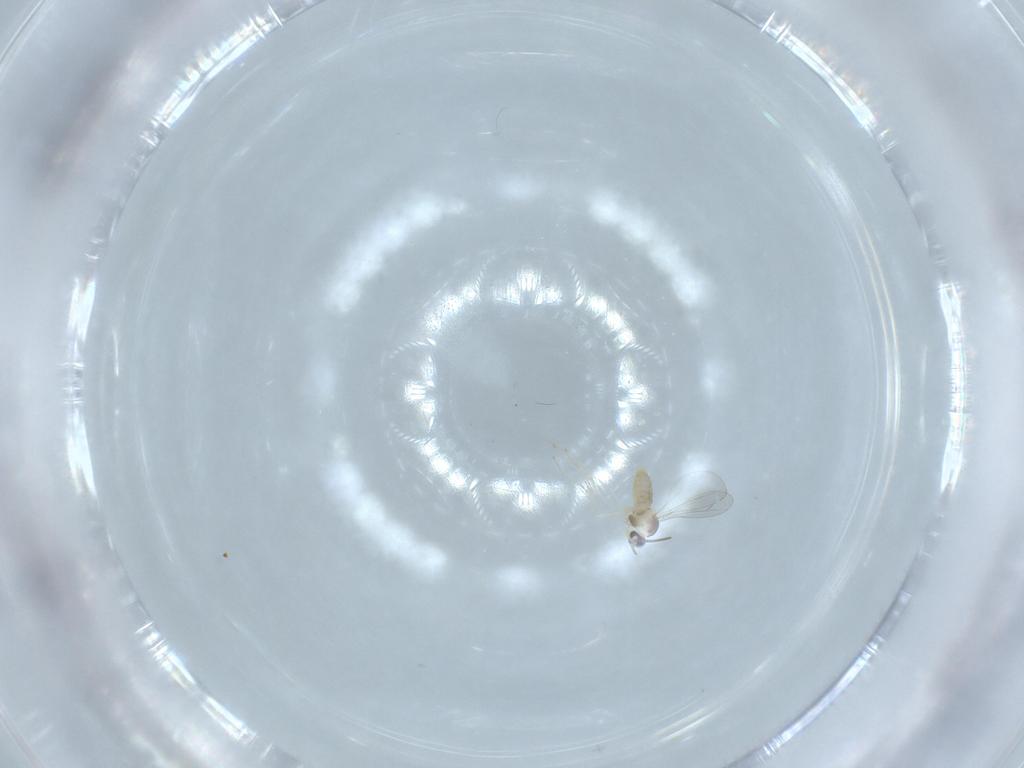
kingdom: Animalia
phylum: Arthropoda
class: Insecta
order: Diptera
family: Cecidomyiidae
